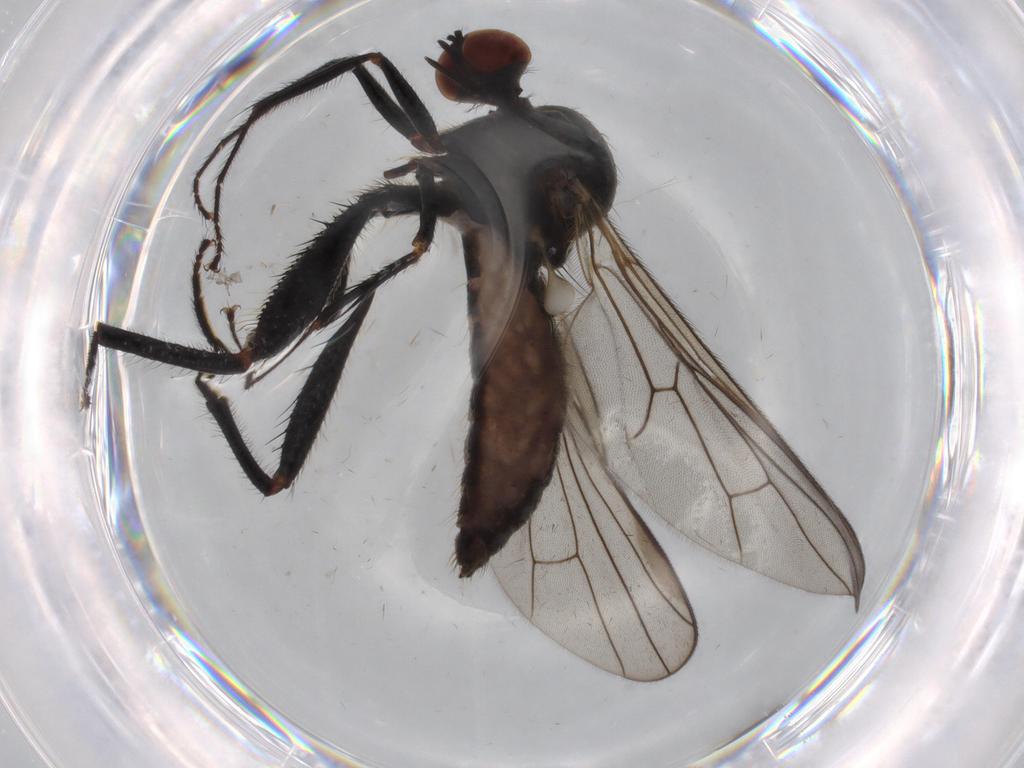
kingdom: Animalia
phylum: Arthropoda
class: Insecta
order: Diptera
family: Hybotidae
